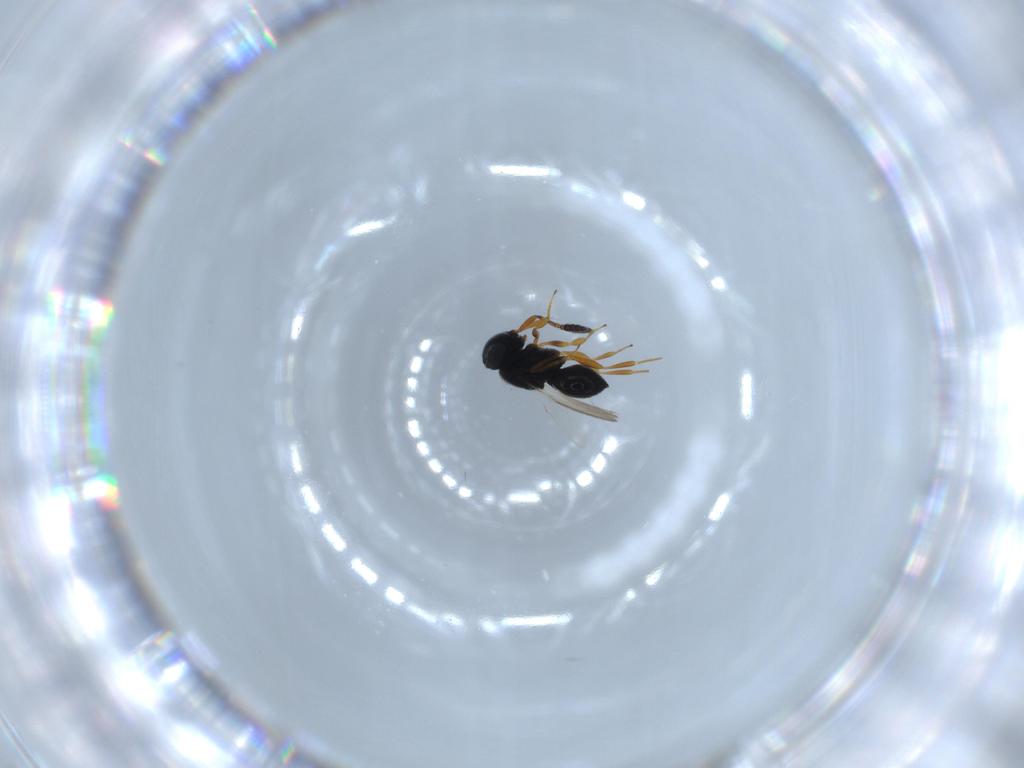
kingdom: Animalia
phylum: Arthropoda
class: Insecta
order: Hymenoptera
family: Scelionidae
